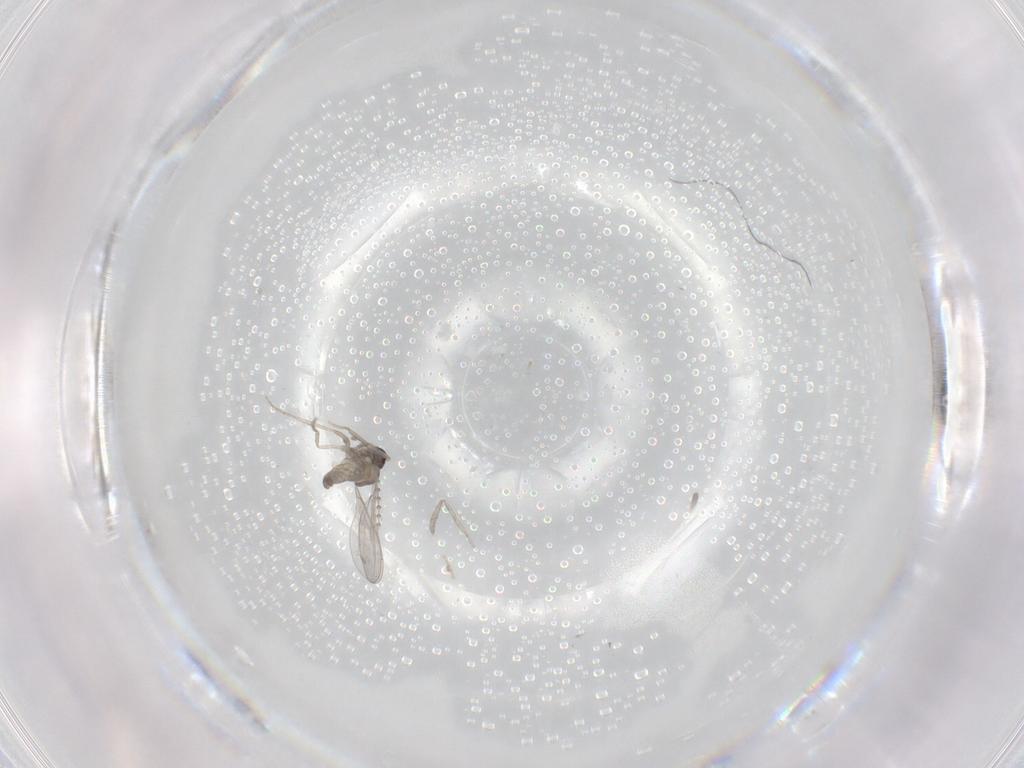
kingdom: Animalia
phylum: Arthropoda
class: Insecta
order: Diptera
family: Cecidomyiidae
